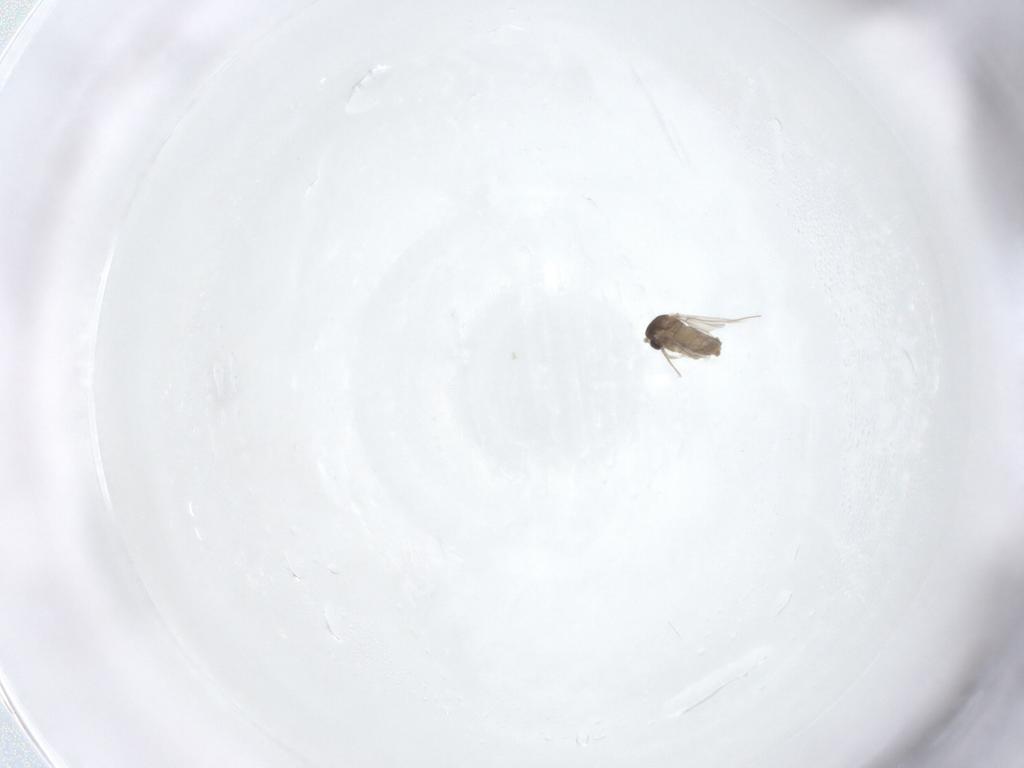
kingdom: Animalia
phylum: Arthropoda
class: Insecta
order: Diptera
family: Cecidomyiidae
